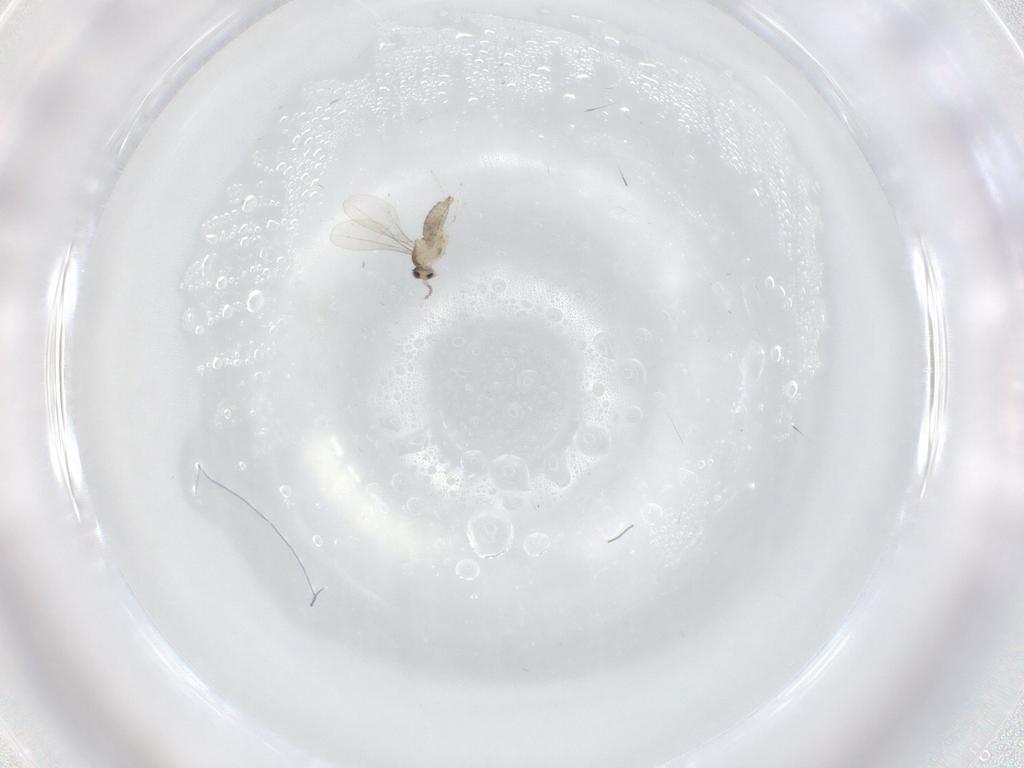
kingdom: Animalia
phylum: Arthropoda
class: Insecta
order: Diptera
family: Cecidomyiidae
